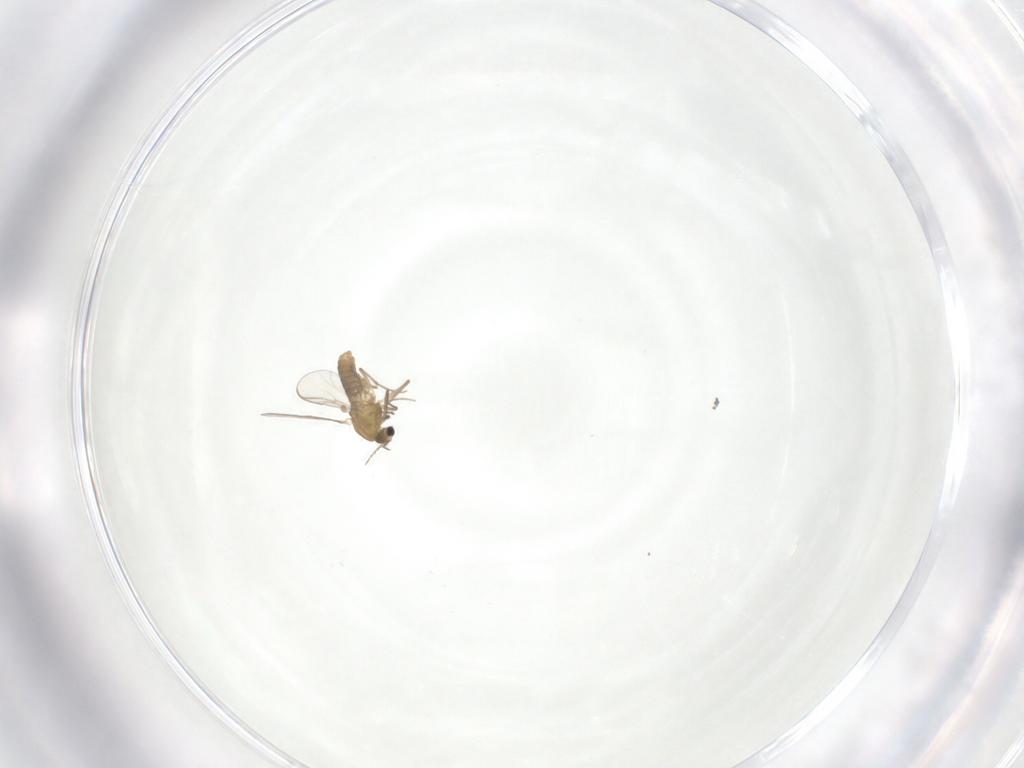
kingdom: Animalia
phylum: Arthropoda
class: Insecta
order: Diptera
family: Chironomidae
